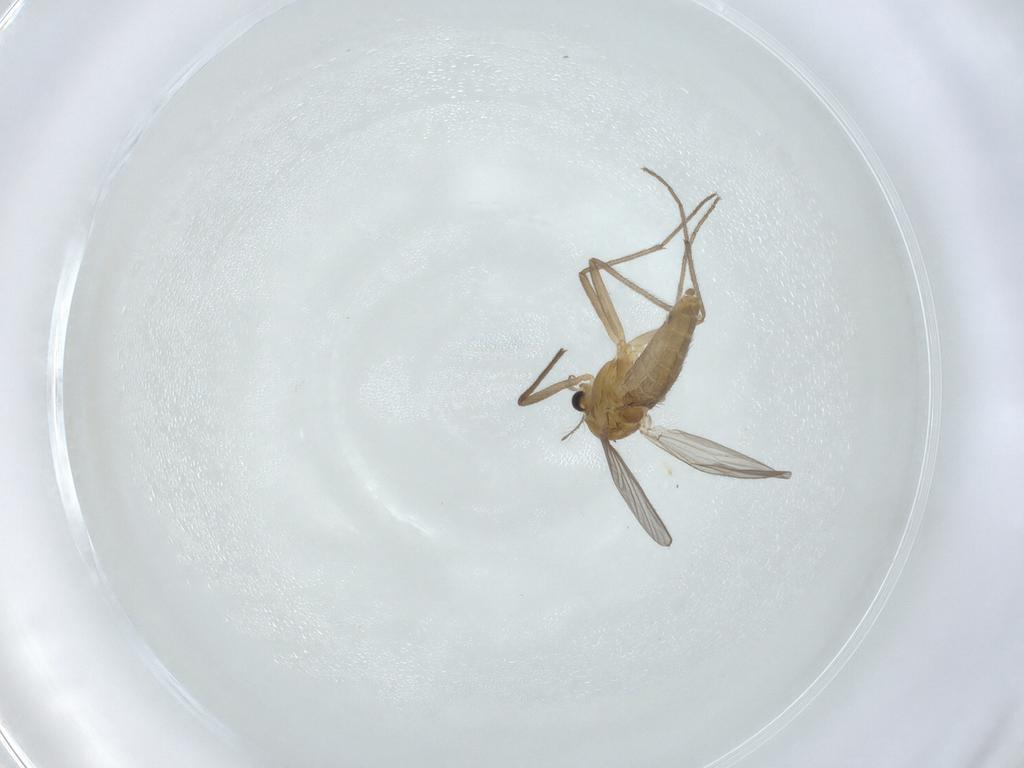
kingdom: Animalia
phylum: Arthropoda
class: Insecta
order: Diptera
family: Chironomidae
